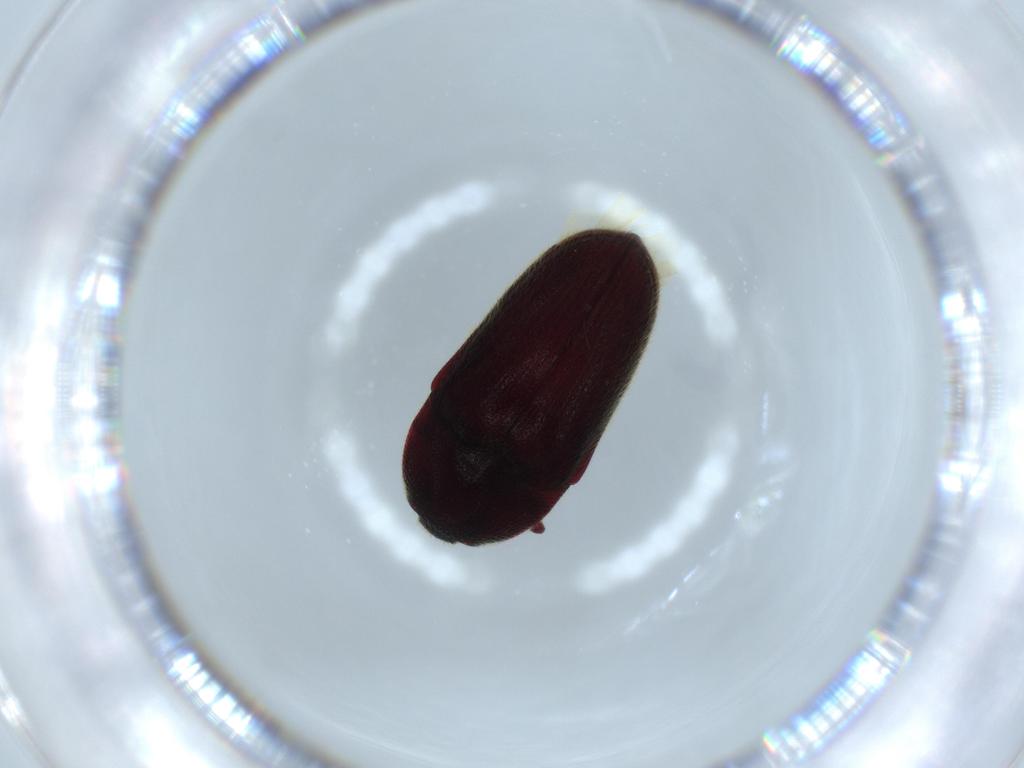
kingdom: Animalia
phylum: Arthropoda
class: Insecta
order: Coleoptera
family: Throscidae
